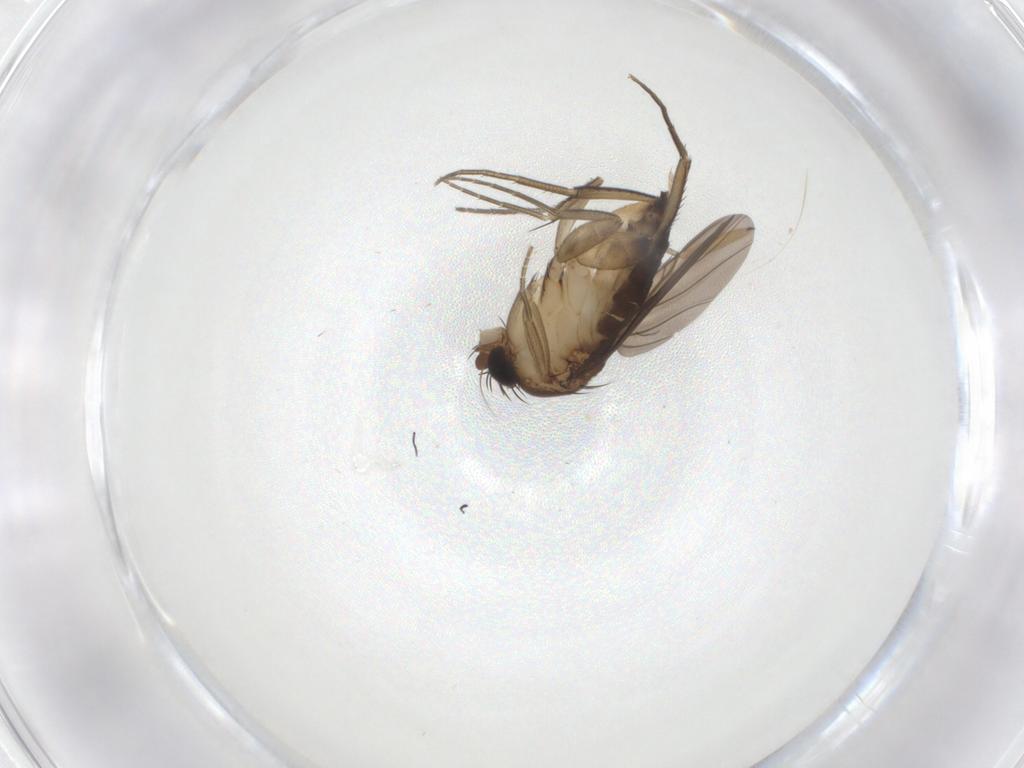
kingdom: Animalia
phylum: Arthropoda
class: Insecta
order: Diptera
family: Phoridae
